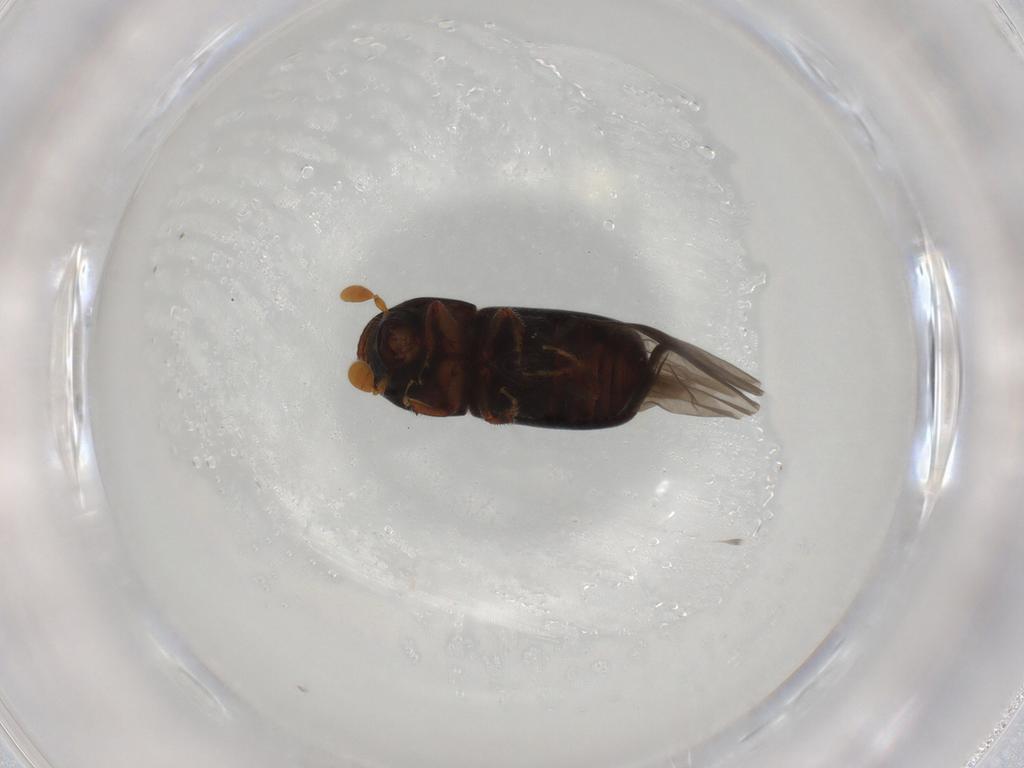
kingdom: Animalia
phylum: Arthropoda
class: Insecta
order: Coleoptera
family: Curculionidae
